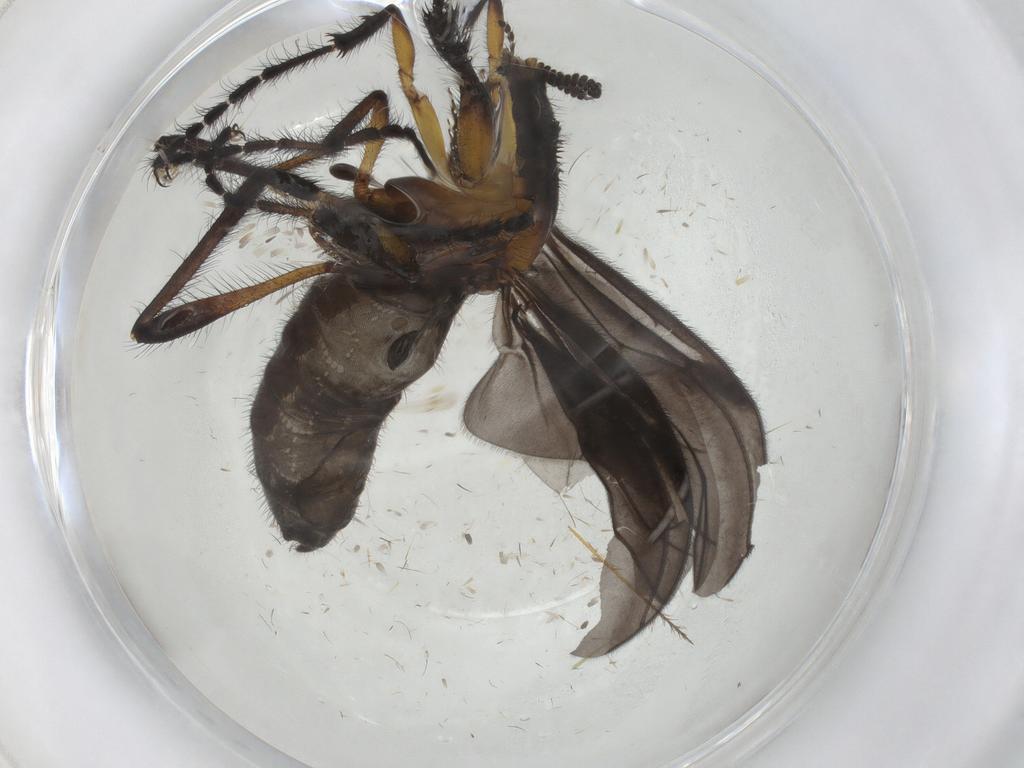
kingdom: Animalia
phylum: Arthropoda
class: Insecta
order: Diptera
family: Bibionidae
